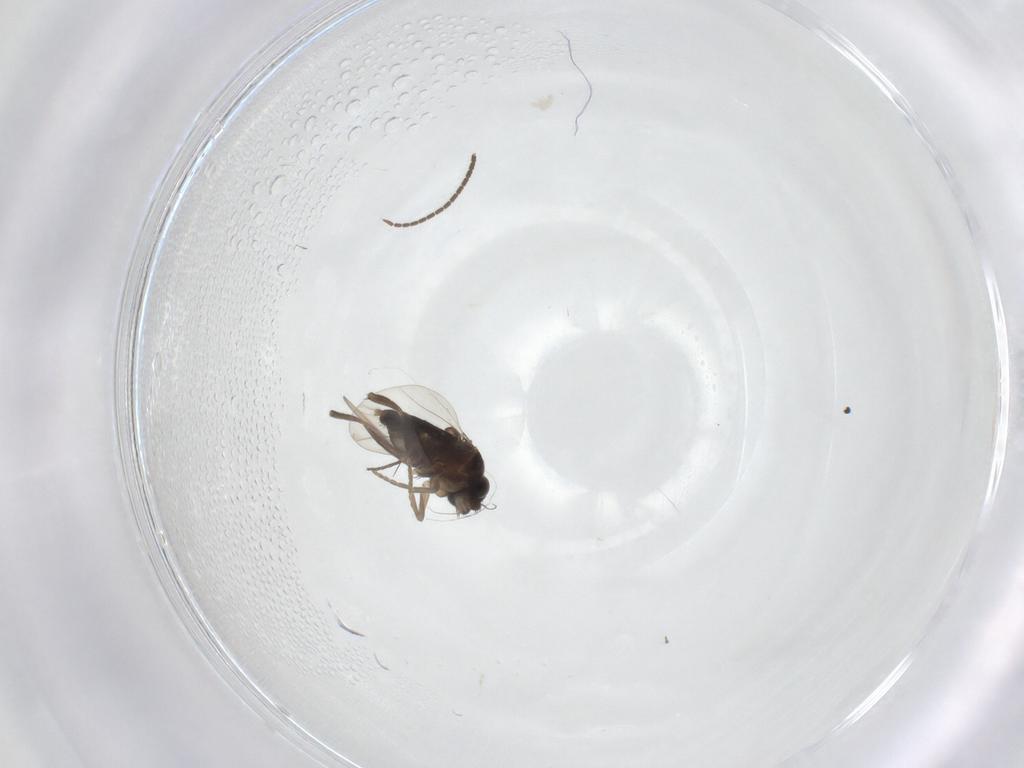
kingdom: Animalia
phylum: Arthropoda
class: Insecta
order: Diptera
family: Phoridae
